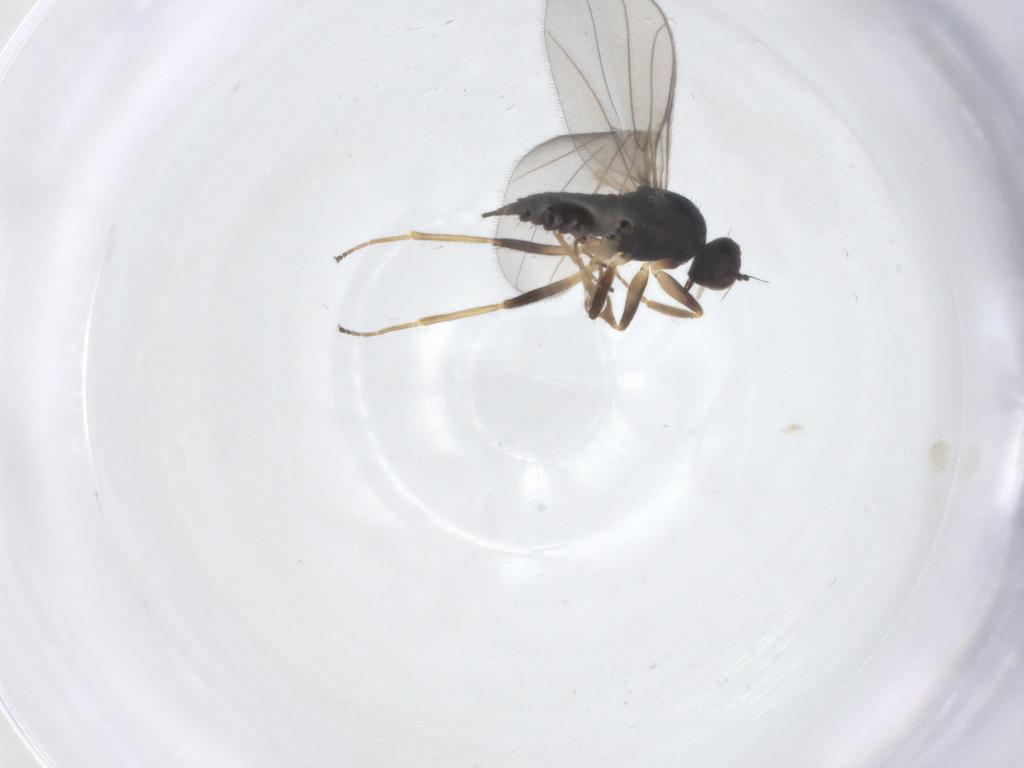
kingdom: Animalia
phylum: Arthropoda
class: Insecta
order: Diptera
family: Hybotidae
